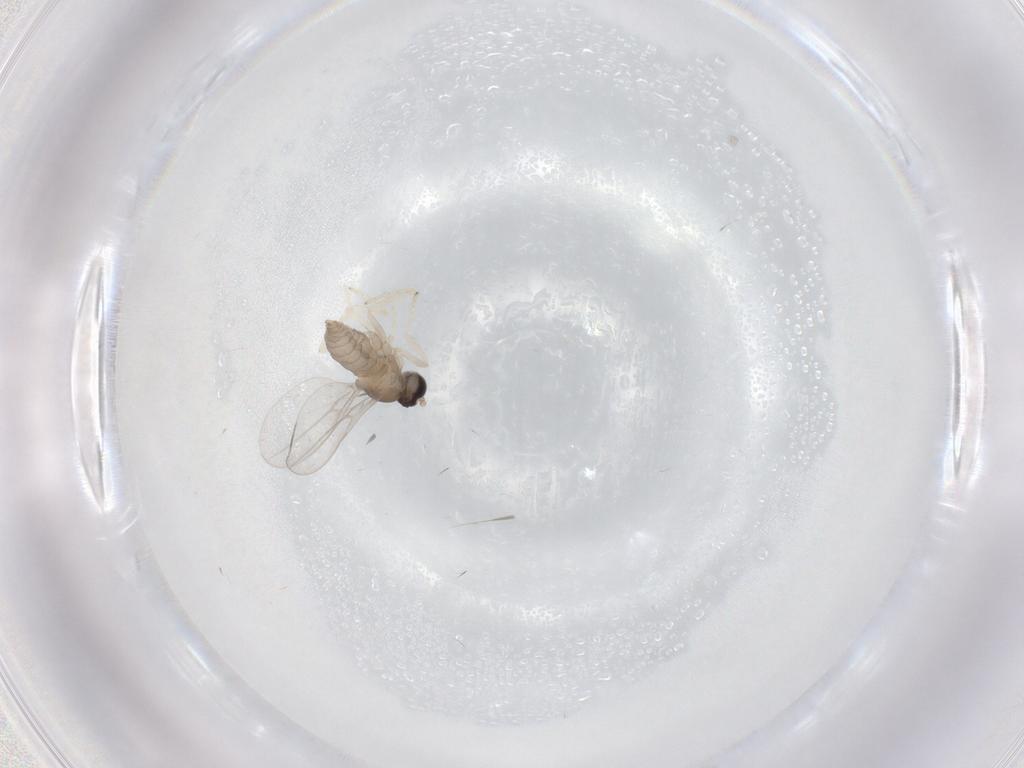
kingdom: Animalia
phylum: Arthropoda
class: Insecta
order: Diptera
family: Cecidomyiidae
